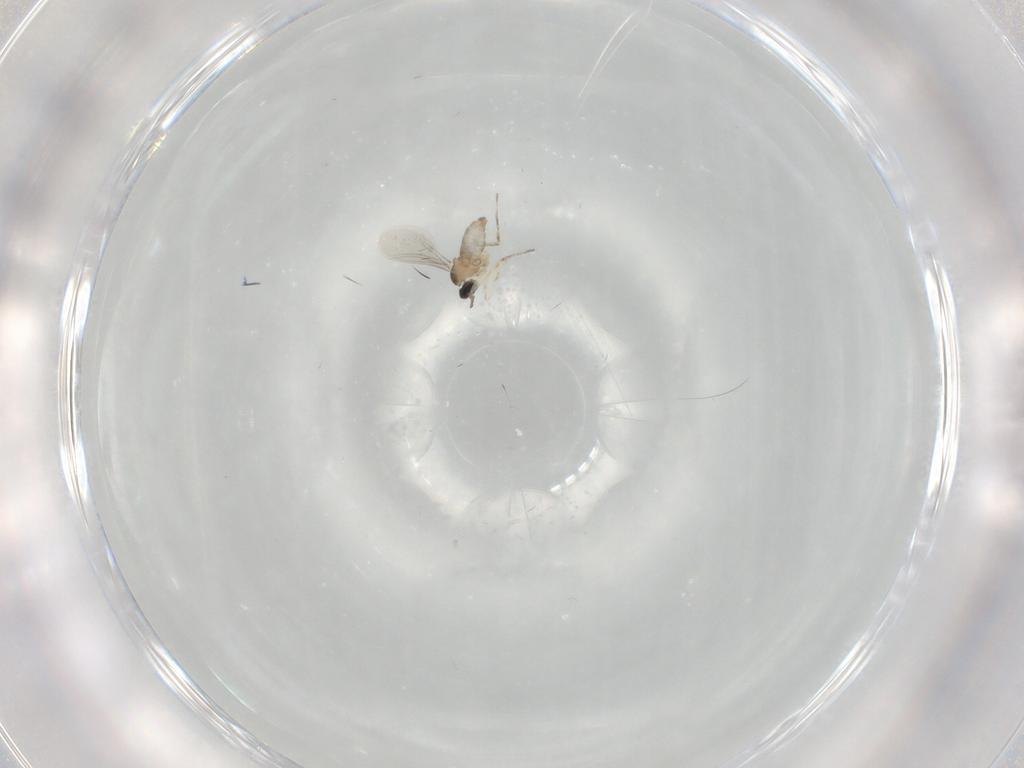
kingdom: Animalia
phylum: Arthropoda
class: Insecta
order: Diptera
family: Cecidomyiidae
